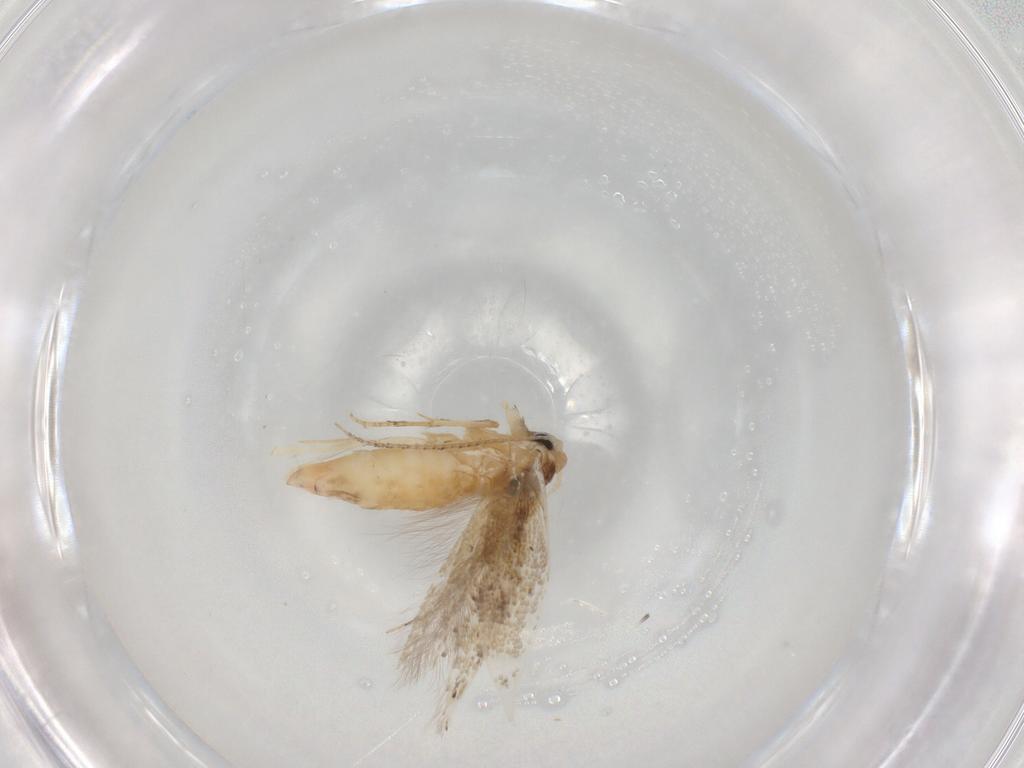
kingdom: Animalia
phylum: Arthropoda
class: Insecta
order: Lepidoptera
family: Bucculatricidae
